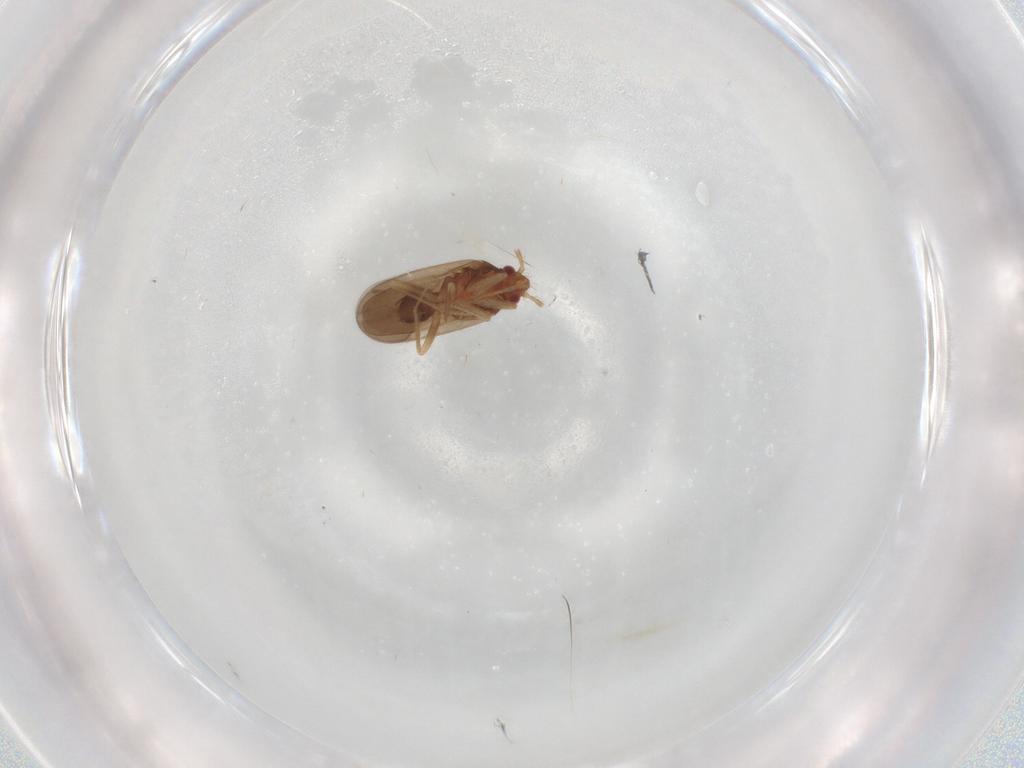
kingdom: Animalia
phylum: Arthropoda
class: Insecta
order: Hemiptera
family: Ceratocombidae
